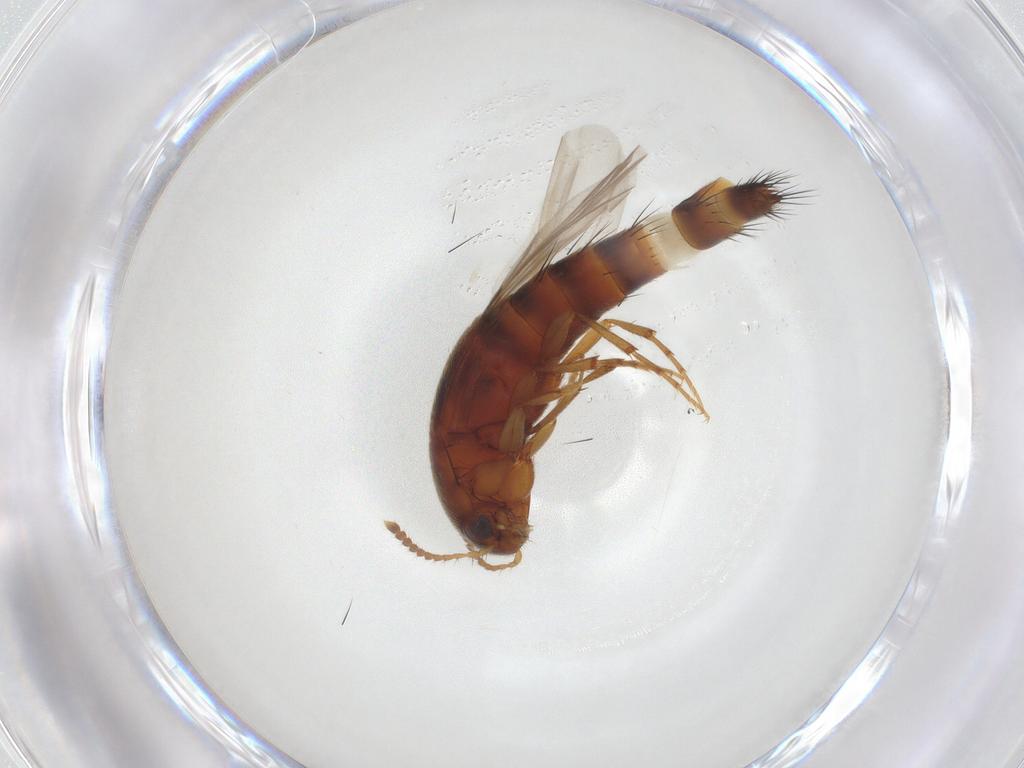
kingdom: Animalia
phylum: Arthropoda
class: Insecta
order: Coleoptera
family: Staphylinidae
